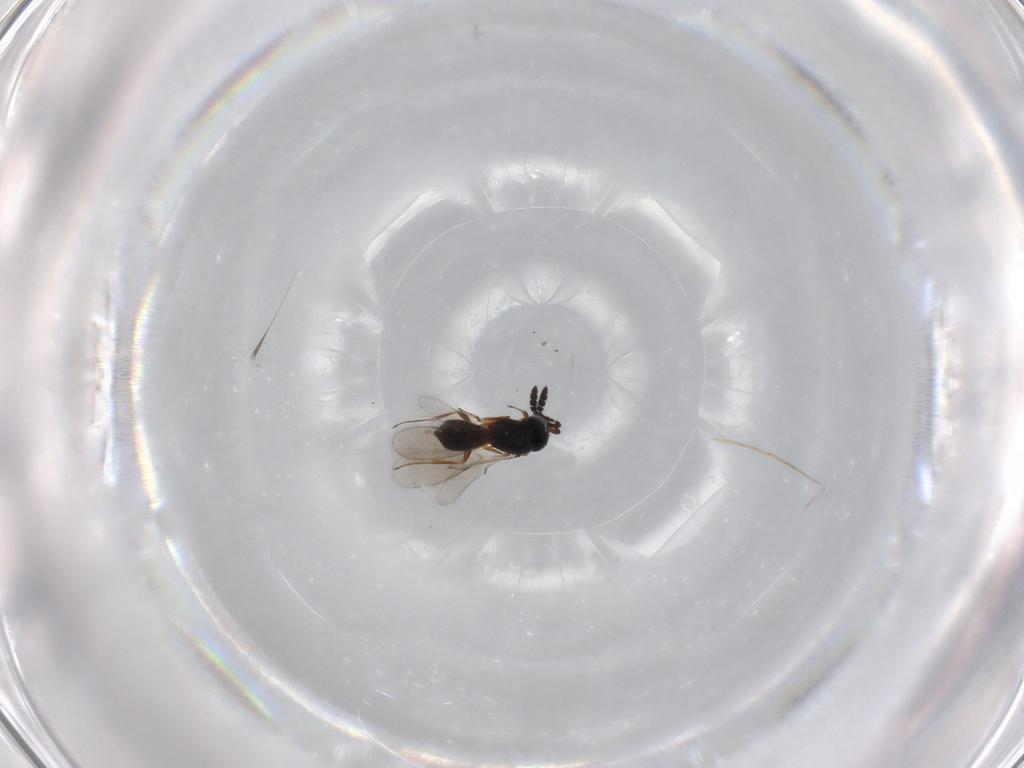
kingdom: Animalia
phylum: Arthropoda
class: Insecta
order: Hymenoptera
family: Scelionidae
